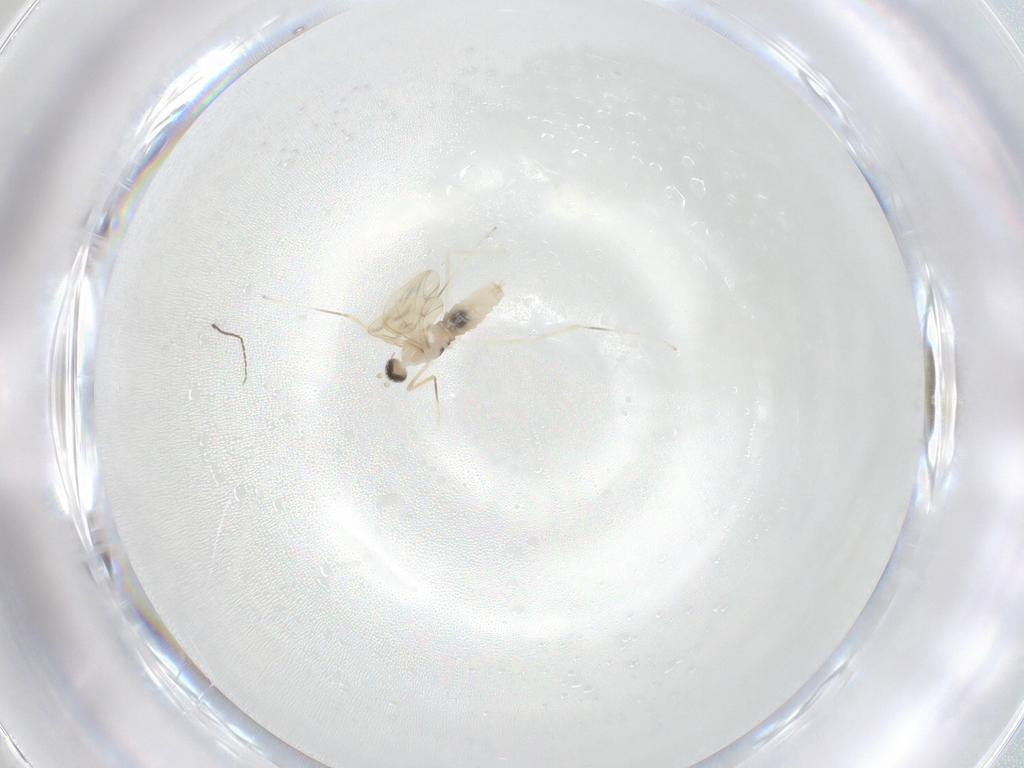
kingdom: Animalia
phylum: Arthropoda
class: Insecta
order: Diptera
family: Cecidomyiidae
